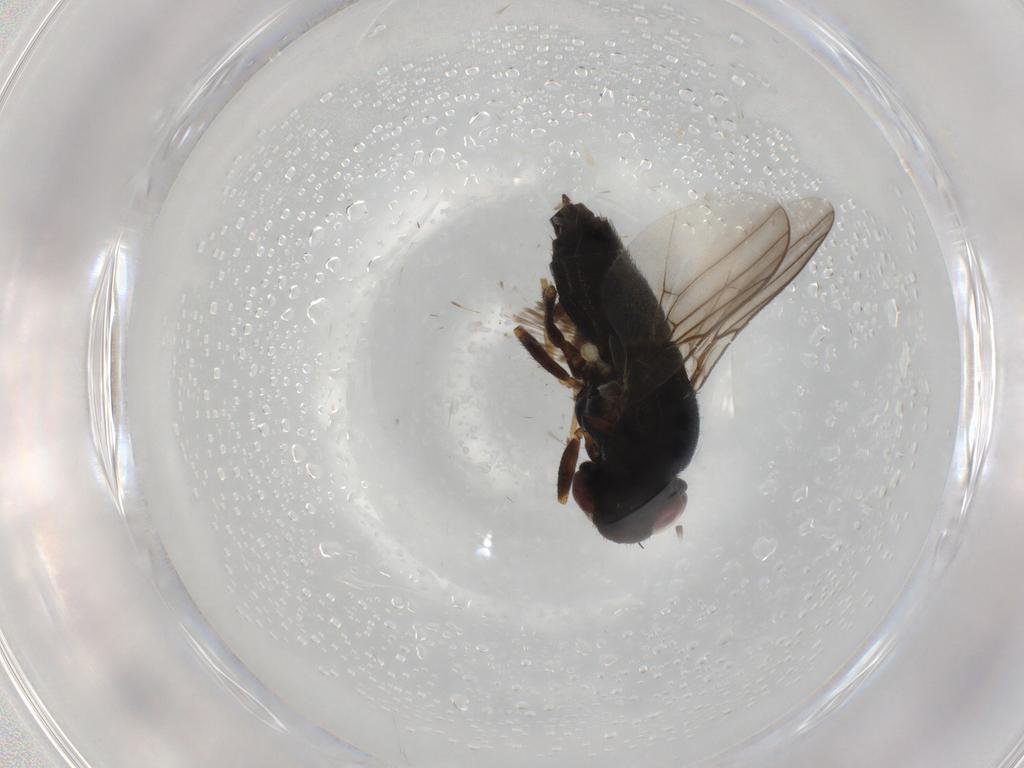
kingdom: Animalia
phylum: Arthropoda
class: Insecta
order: Diptera
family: Chloropidae
